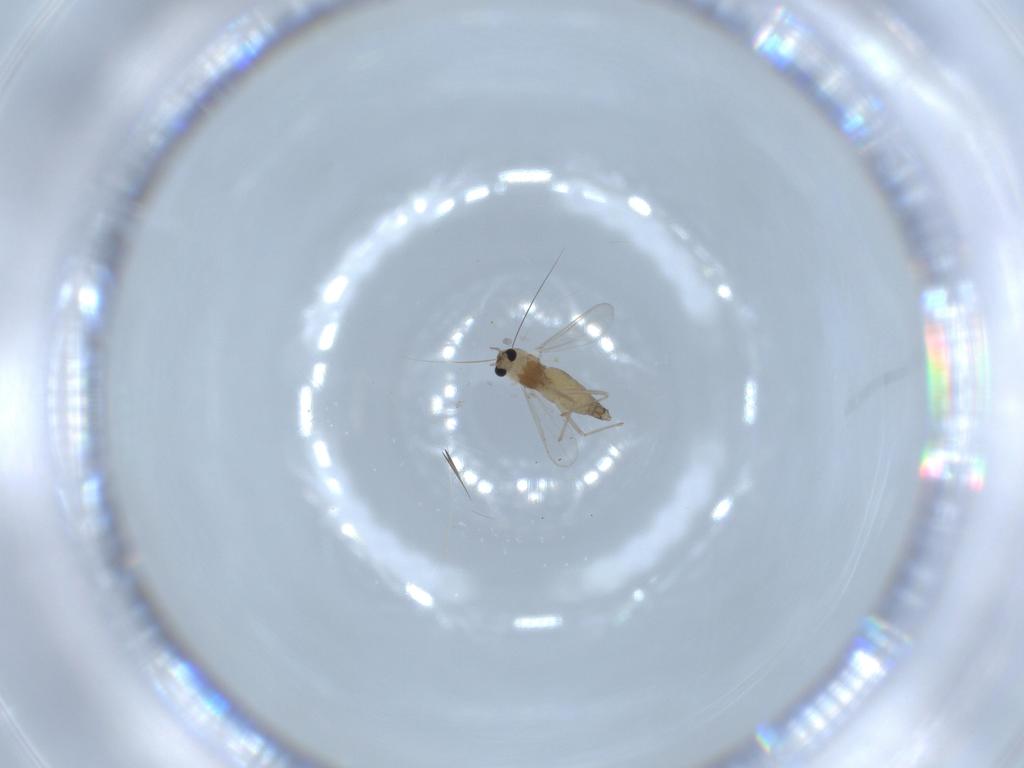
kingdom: Animalia
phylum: Arthropoda
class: Insecta
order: Diptera
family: Chironomidae
